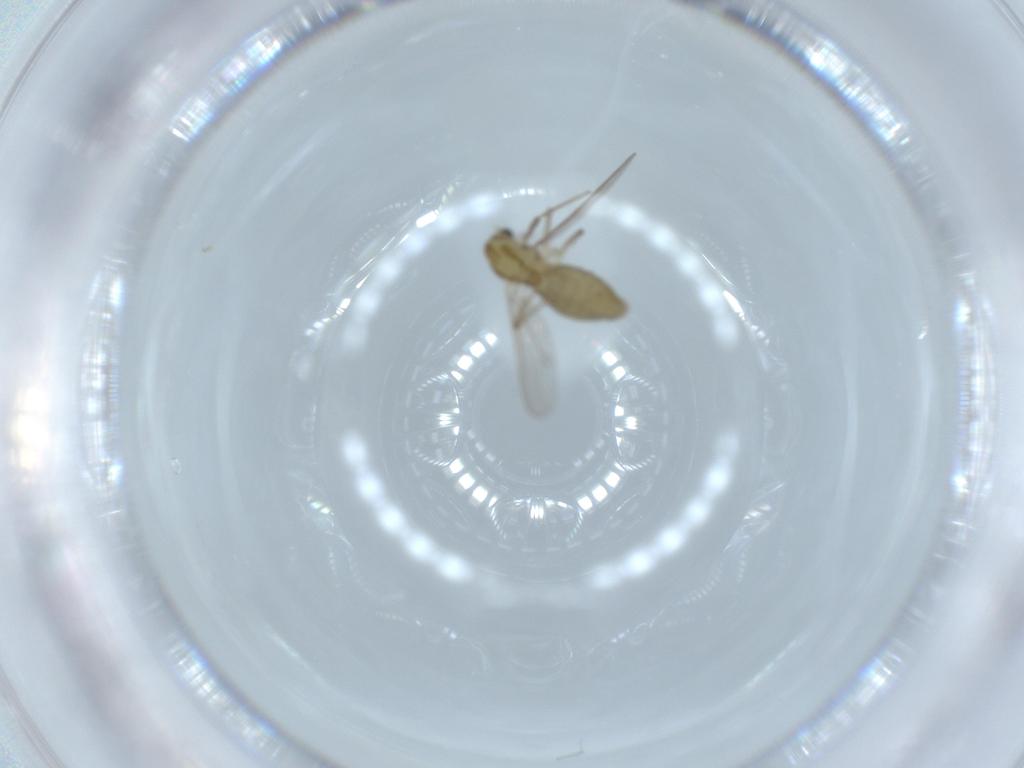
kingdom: Animalia
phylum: Arthropoda
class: Insecta
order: Diptera
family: Chironomidae
